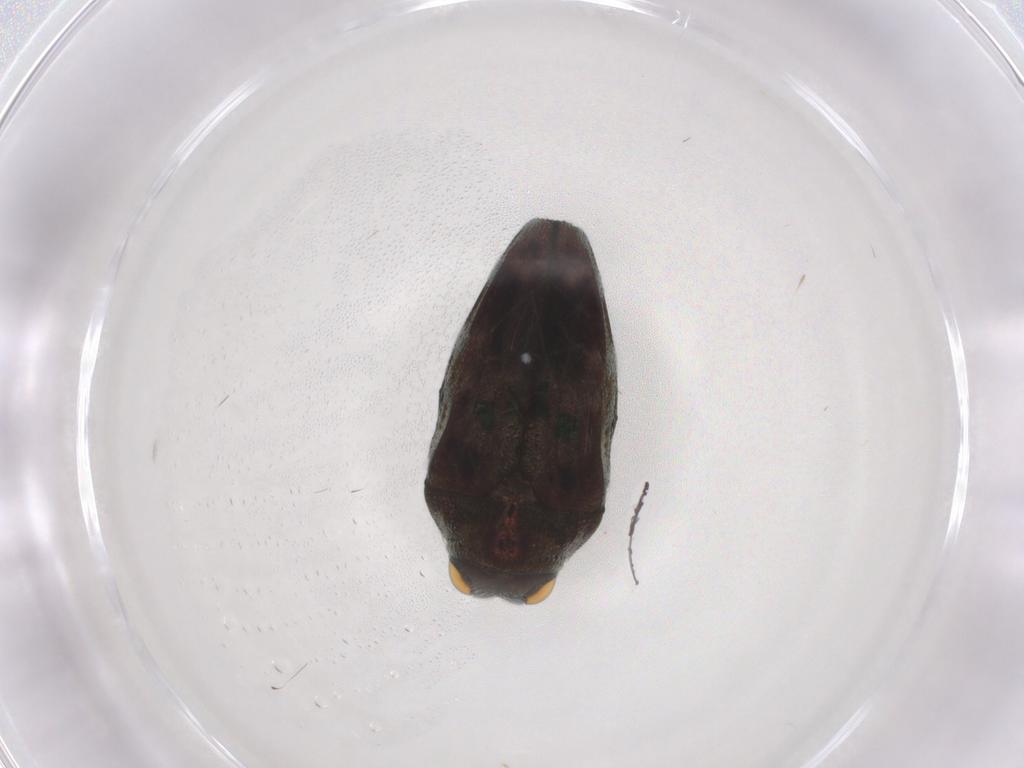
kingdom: Animalia
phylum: Arthropoda
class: Insecta
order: Coleoptera
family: Buprestidae
